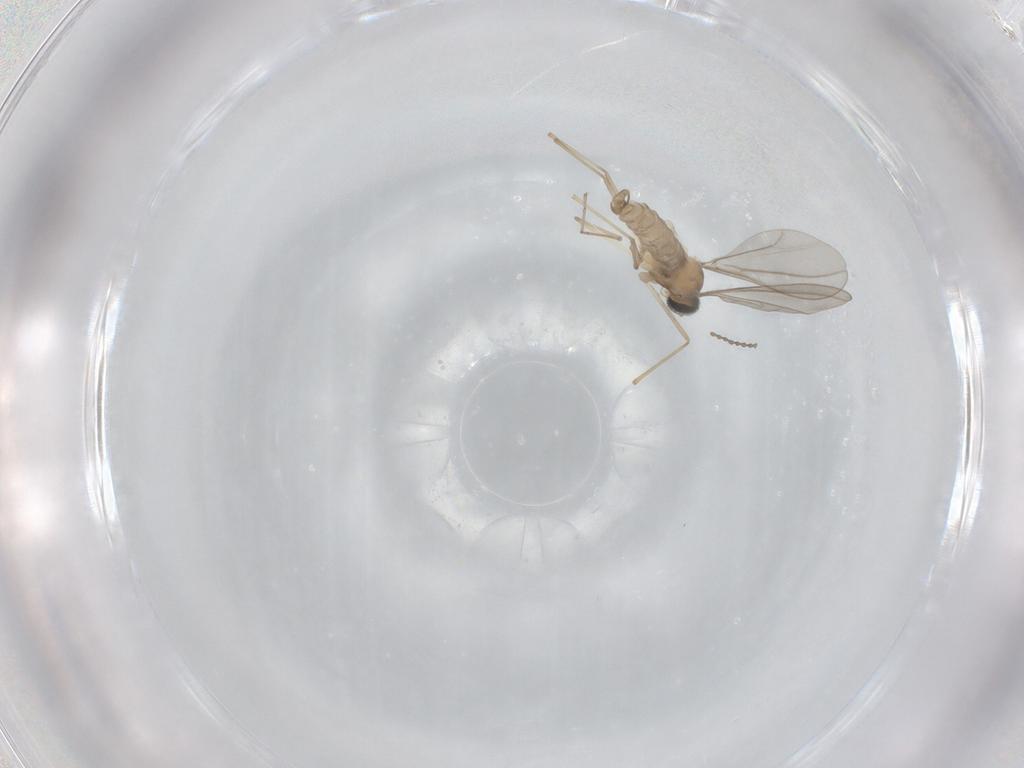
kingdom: Animalia
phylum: Arthropoda
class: Insecta
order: Diptera
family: Cecidomyiidae
